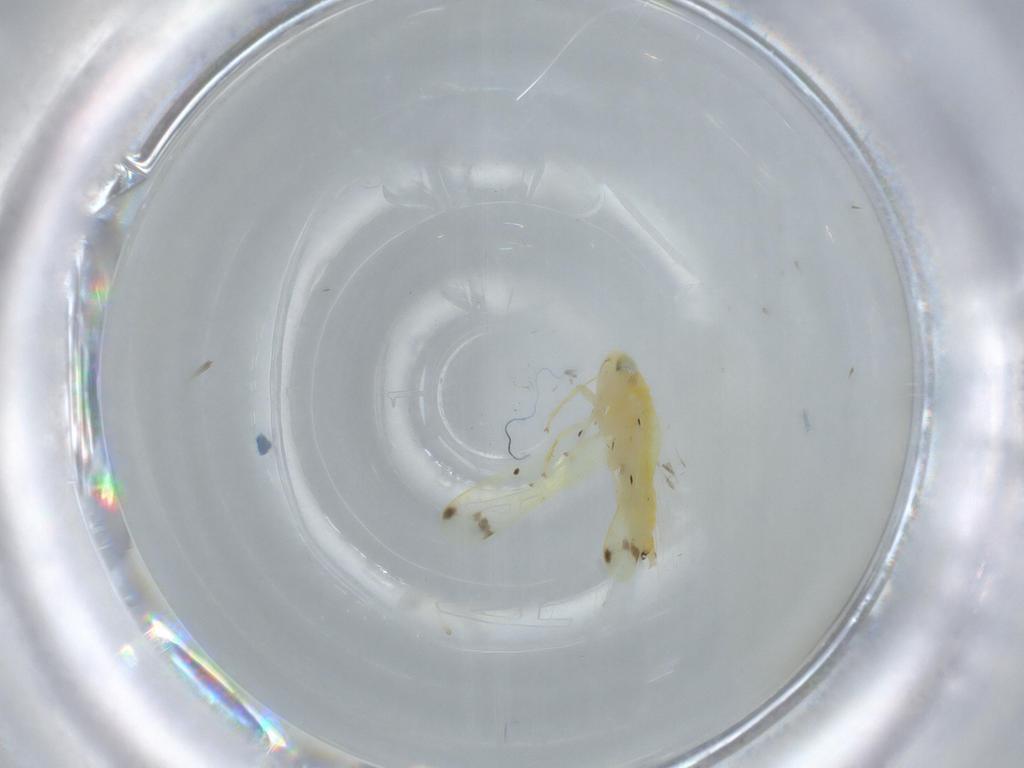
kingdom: Animalia
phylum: Arthropoda
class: Insecta
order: Hemiptera
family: Cicadellidae
